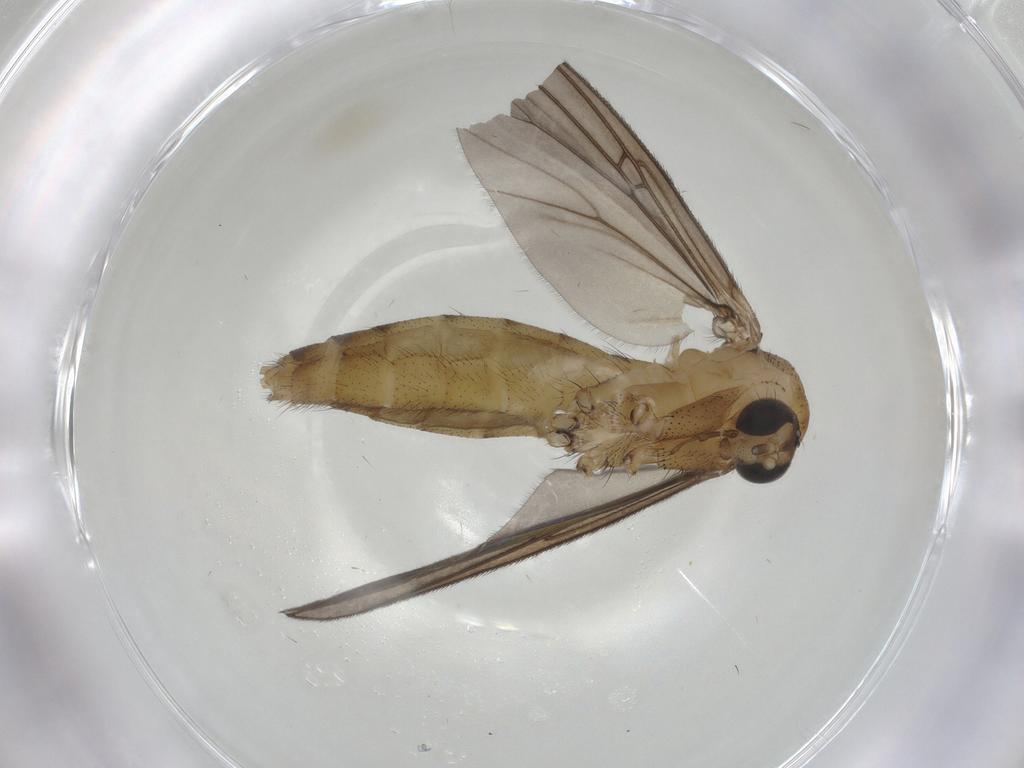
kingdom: Animalia
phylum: Arthropoda
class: Insecta
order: Diptera
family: Mycetophilidae
